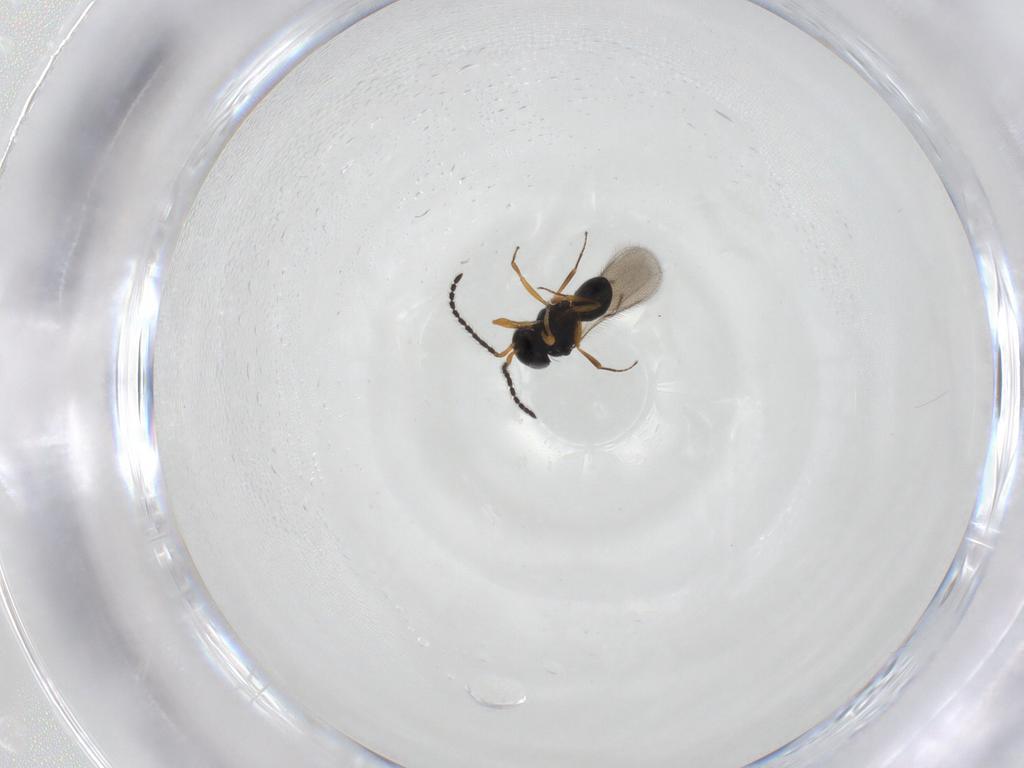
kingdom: Animalia
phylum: Arthropoda
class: Insecta
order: Hymenoptera
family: Scelionidae
